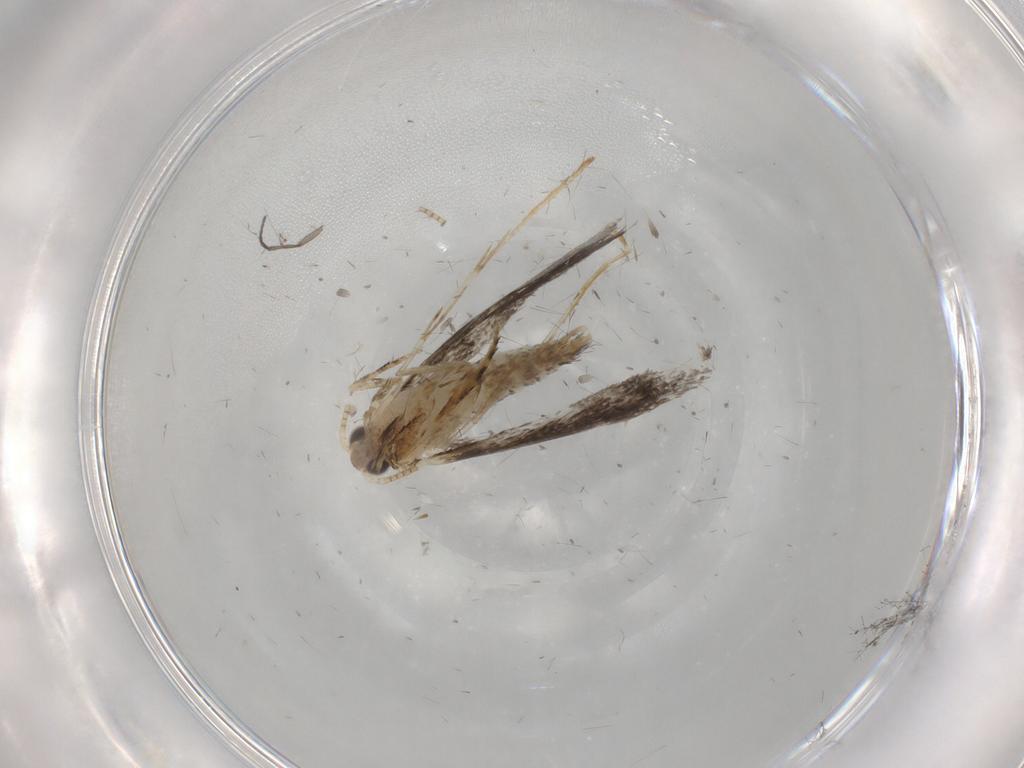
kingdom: Animalia
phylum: Arthropoda
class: Insecta
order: Lepidoptera
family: Tineidae
